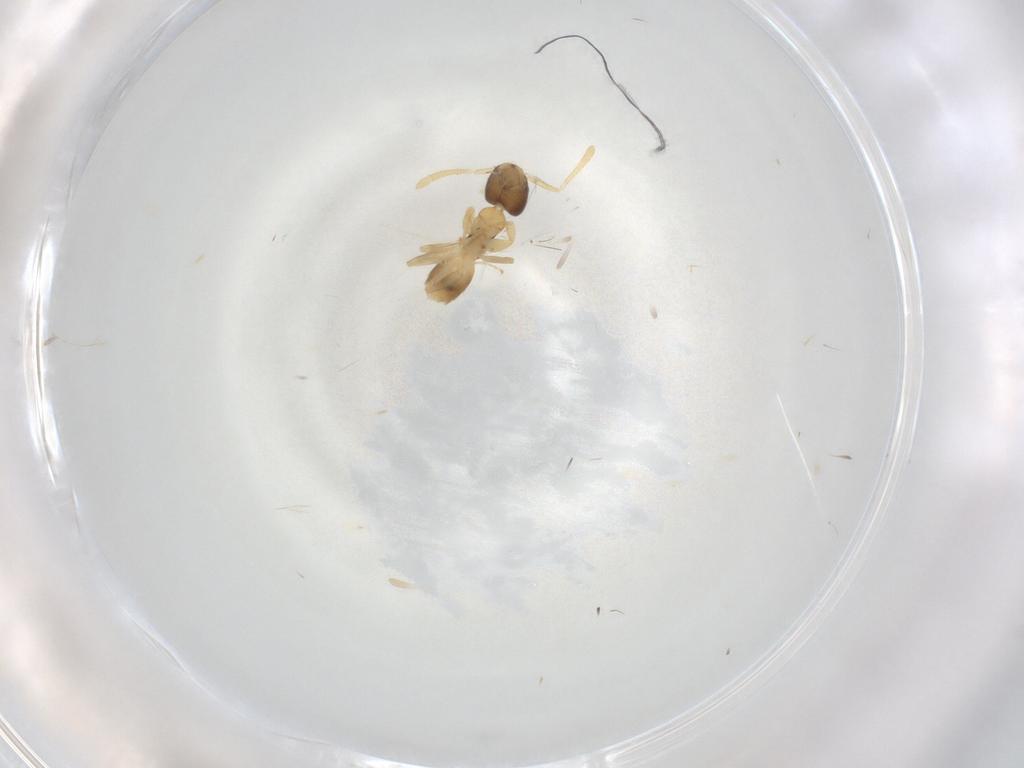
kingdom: Animalia
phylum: Arthropoda
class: Insecta
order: Hymenoptera
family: Formicidae
